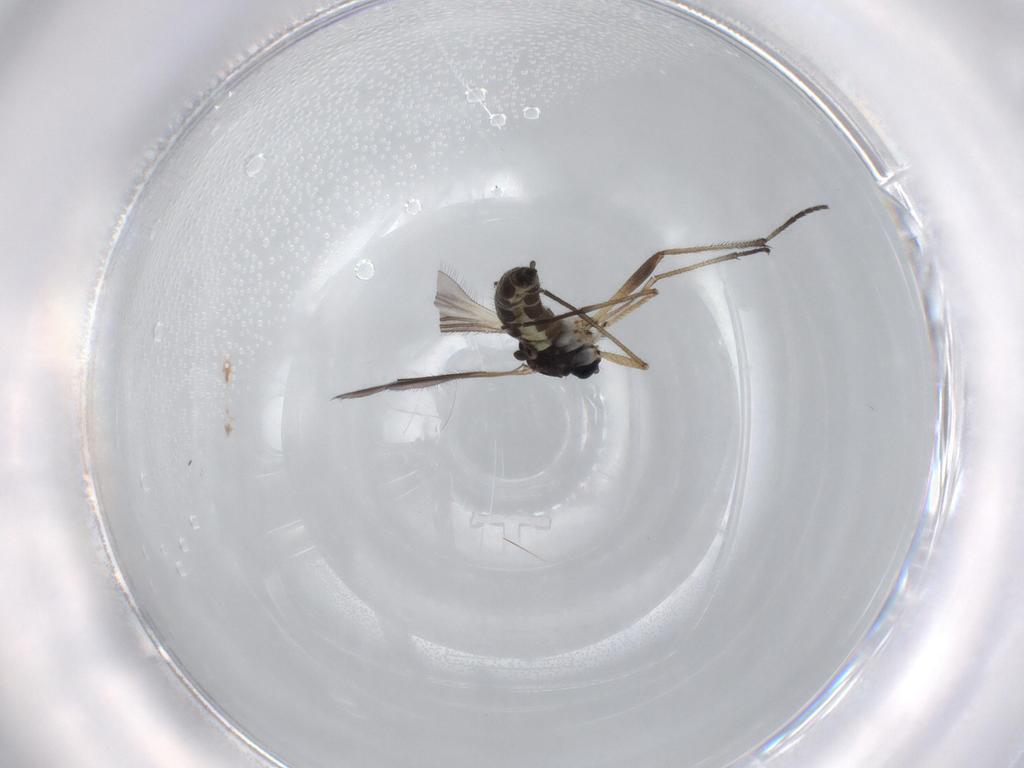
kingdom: Animalia
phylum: Arthropoda
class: Insecta
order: Diptera
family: Sciaridae
